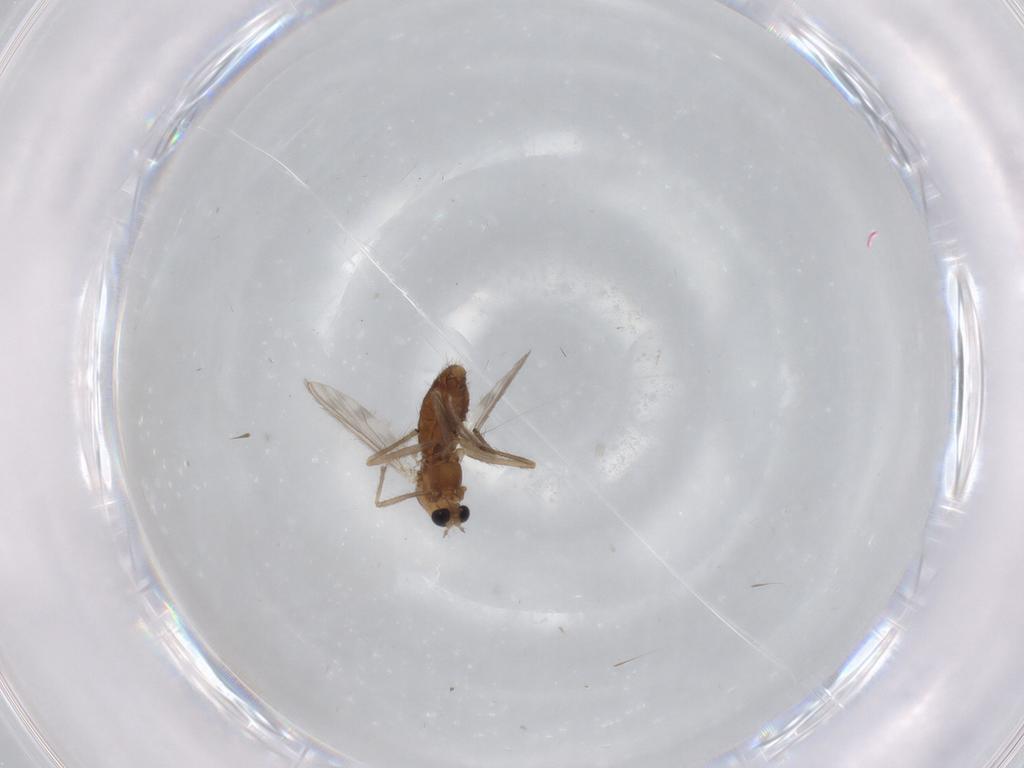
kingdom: Animalia
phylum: Arthropoda
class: Insecta
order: Diptera
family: Chironomidae
